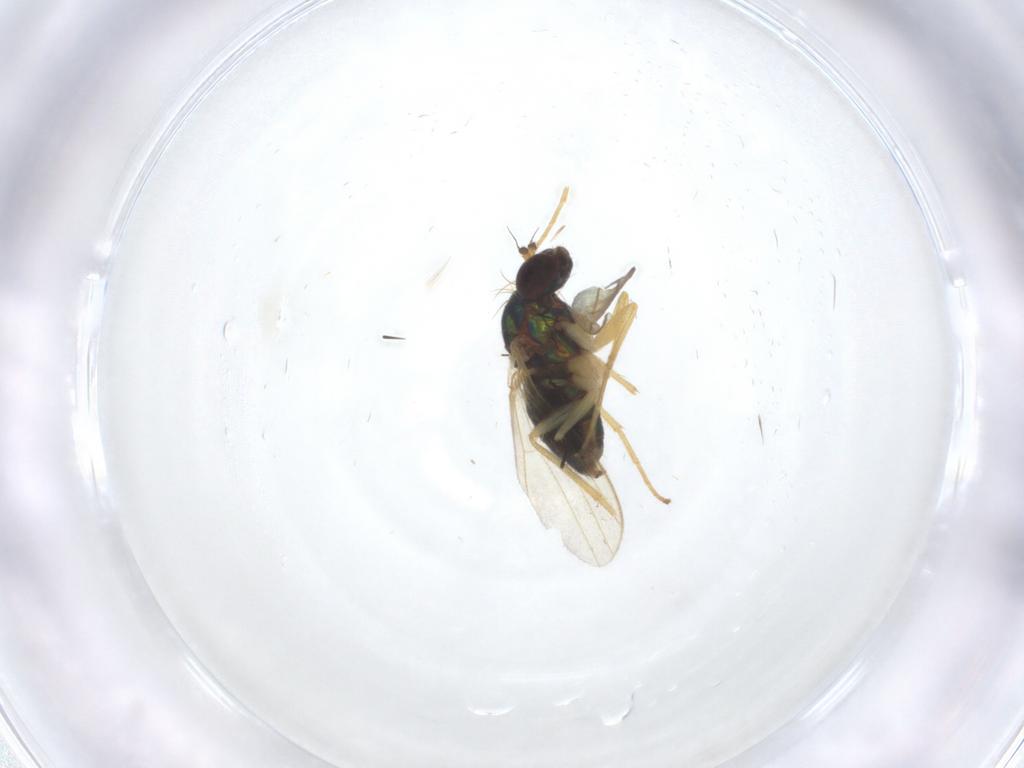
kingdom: Animalia
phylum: Arthropoda
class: Insecta
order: Diptera
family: Dolichopodidae
